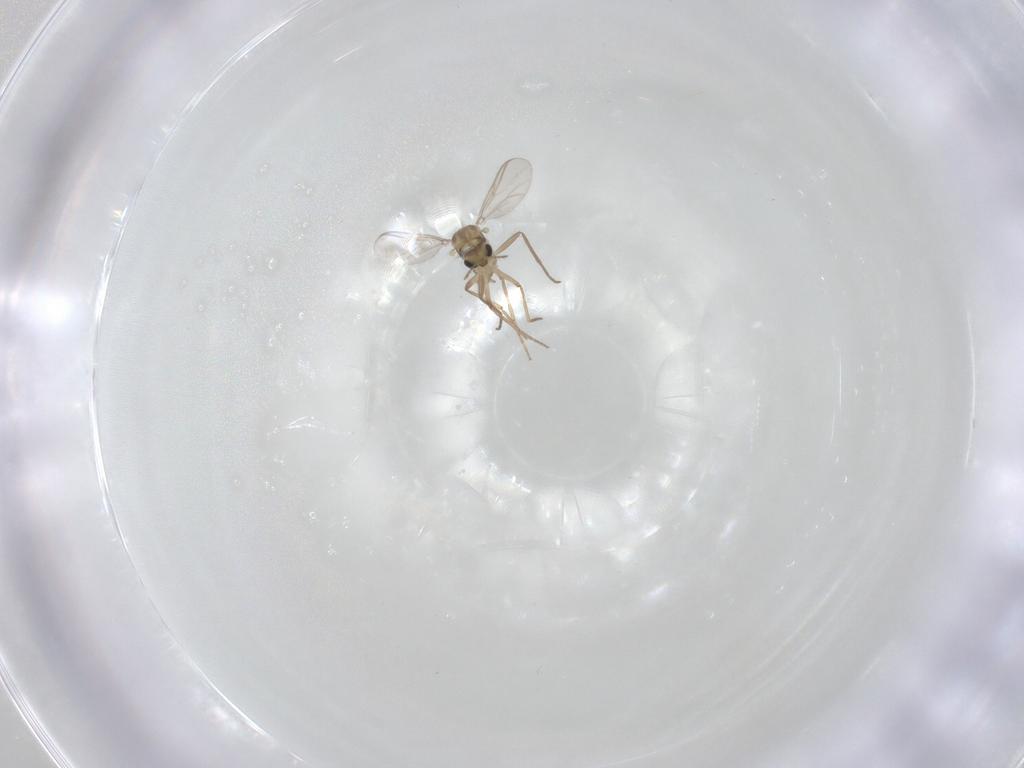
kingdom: Animalia
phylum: Arthropoda
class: Insecta
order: Diptera
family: Chironomidae
